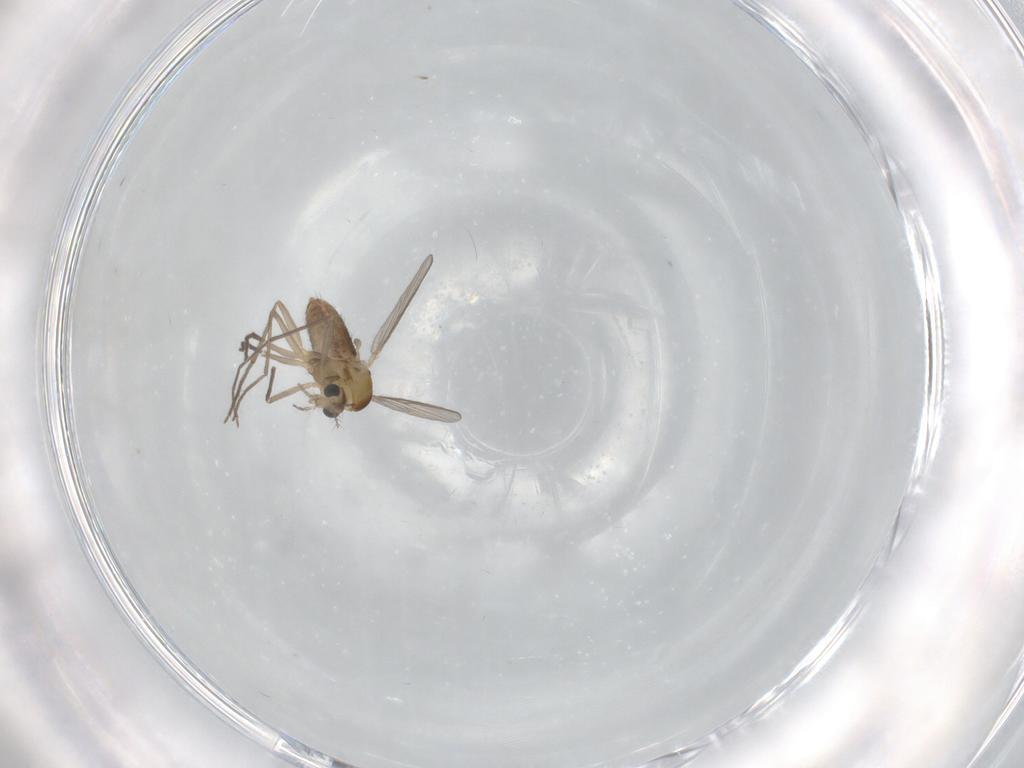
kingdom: Animalia
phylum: Arthropoda
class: Insecta
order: Diptera
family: Chironomidae
